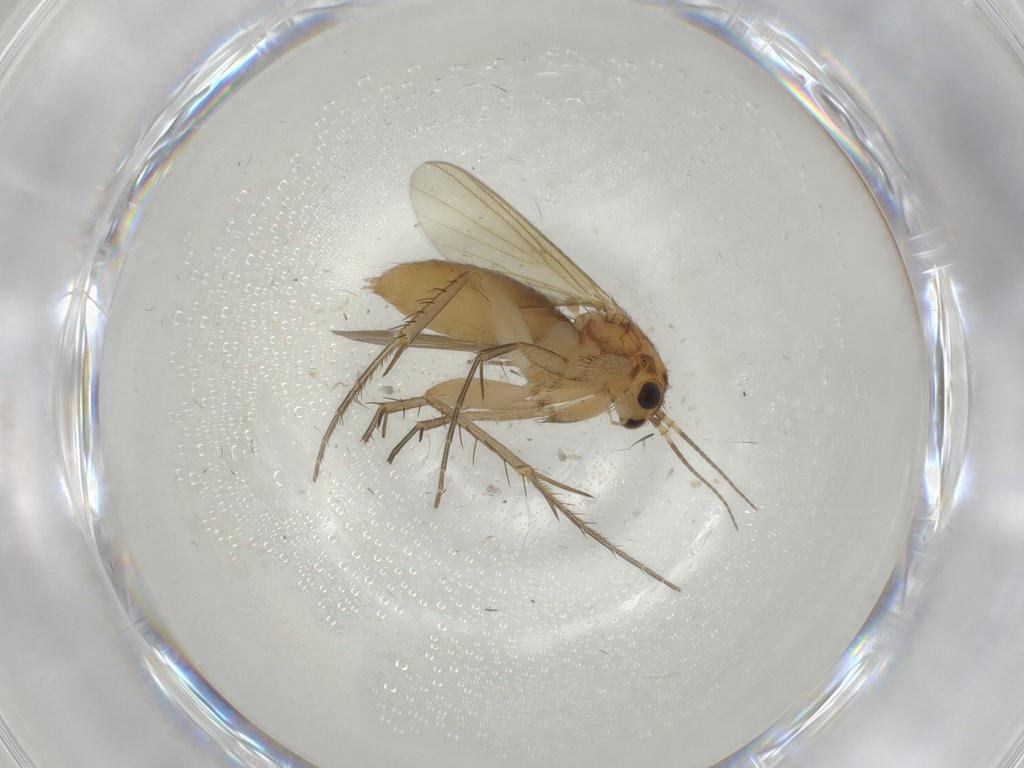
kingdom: Animalia
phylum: Arthropoda
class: Insecta
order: Diptera
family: Mycetophilidae
